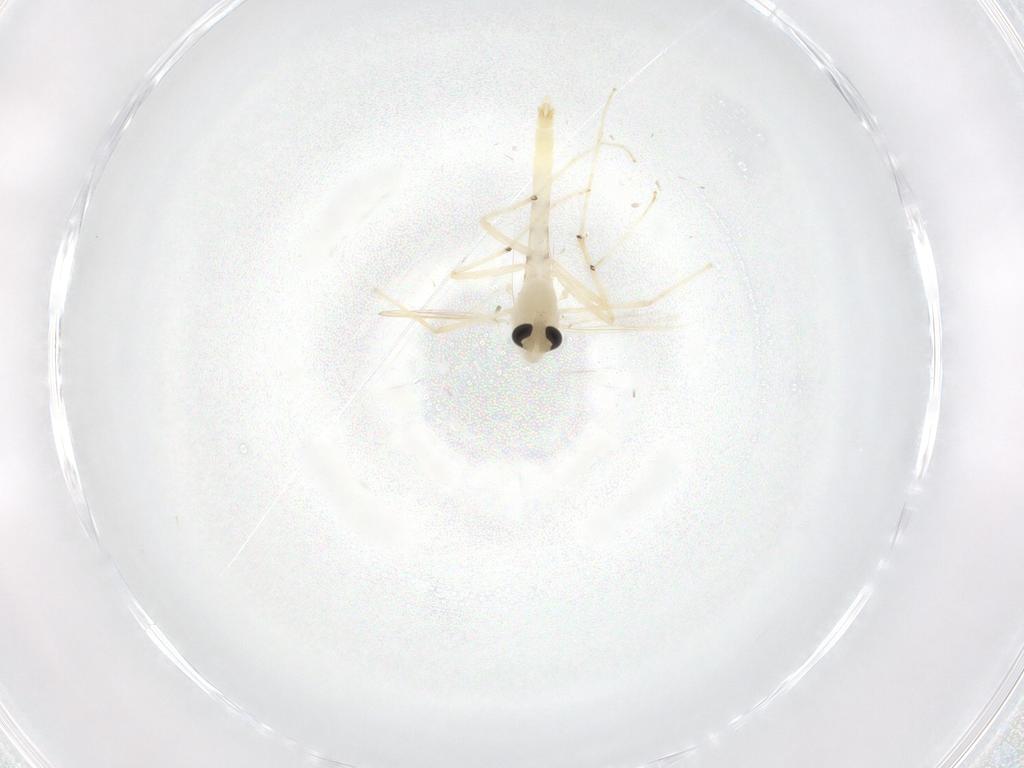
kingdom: Animalia
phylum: Arthropoda
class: Insecta
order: Diptera
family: Chironomidae
